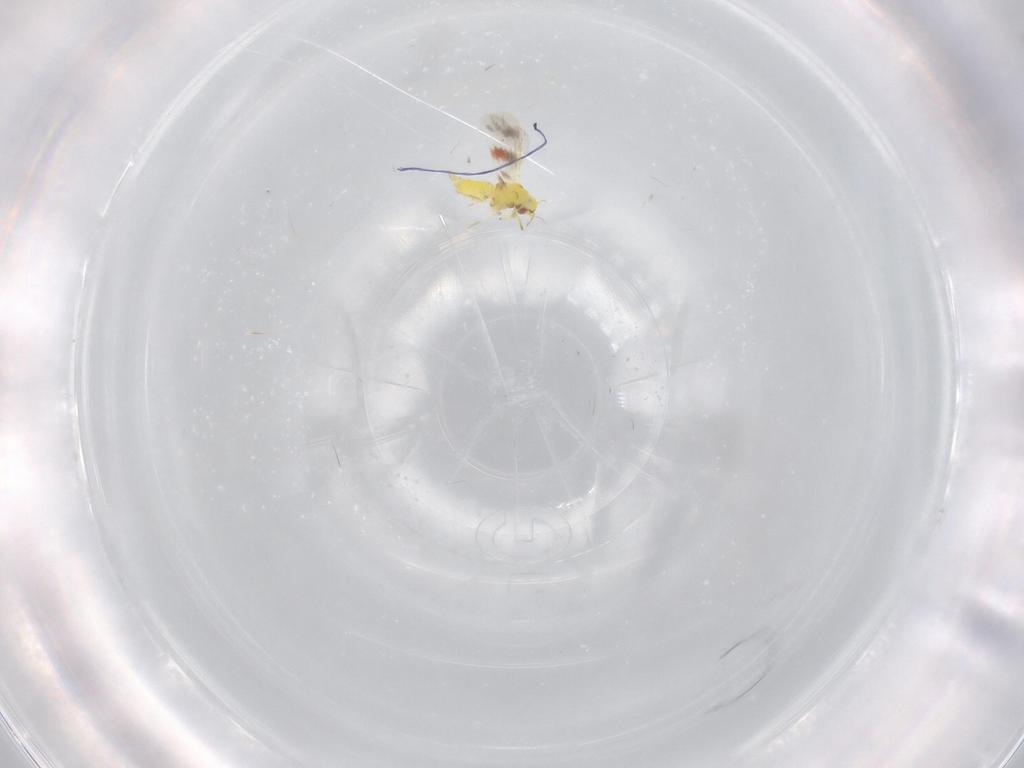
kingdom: Animalia
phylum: Arthropoda
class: Insecta
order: Hemiptera
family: Aleyrodidae
